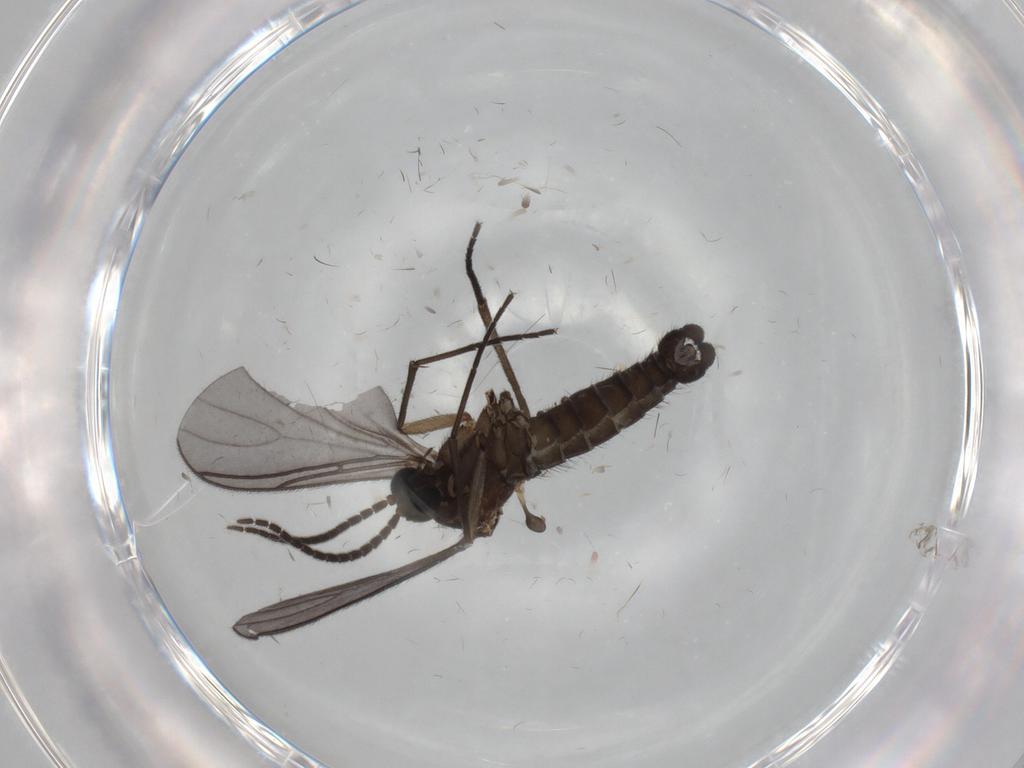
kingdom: Animalia
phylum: Arthropoda
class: Insecta
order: Diptera
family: Sciaridae
